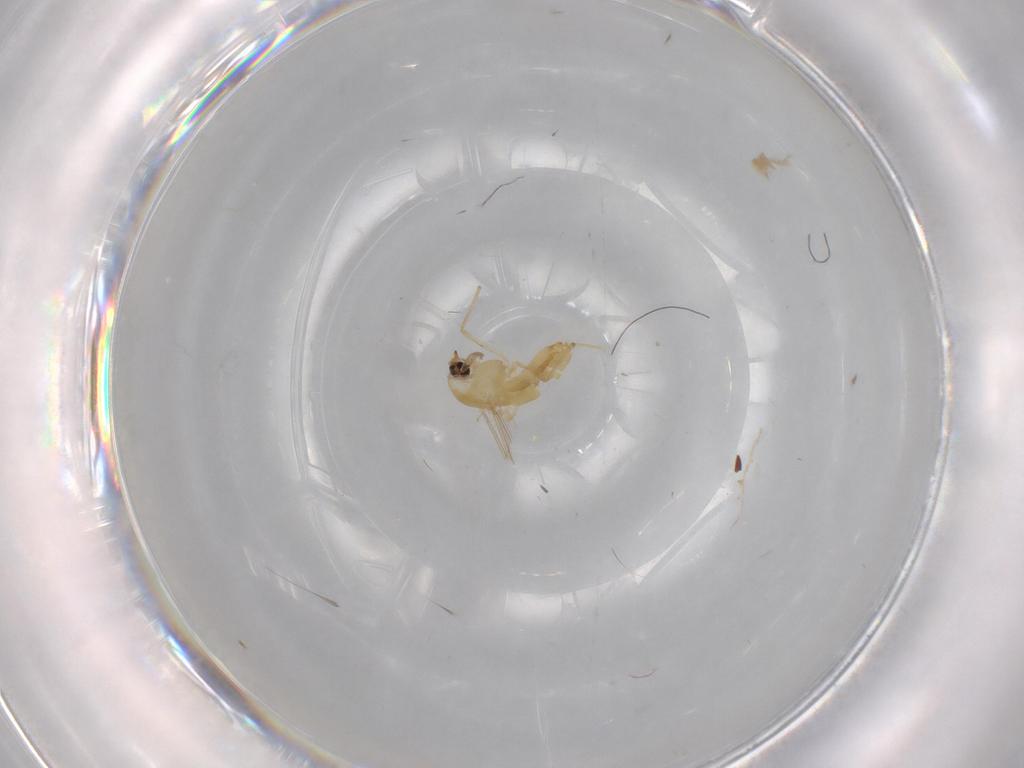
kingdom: Animalia
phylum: Arthropoda
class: Insecta
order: Diptera
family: Chironomidae
